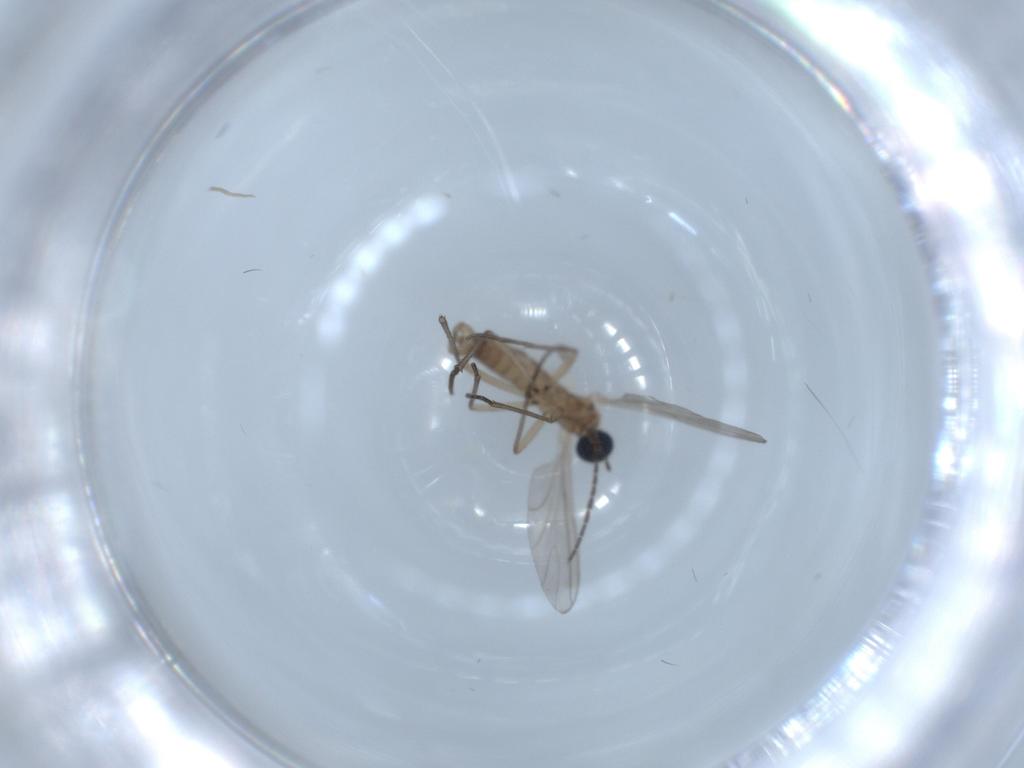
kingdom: Animalia
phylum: Arthropoda
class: Insecta
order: Diptera
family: Sciaridae
